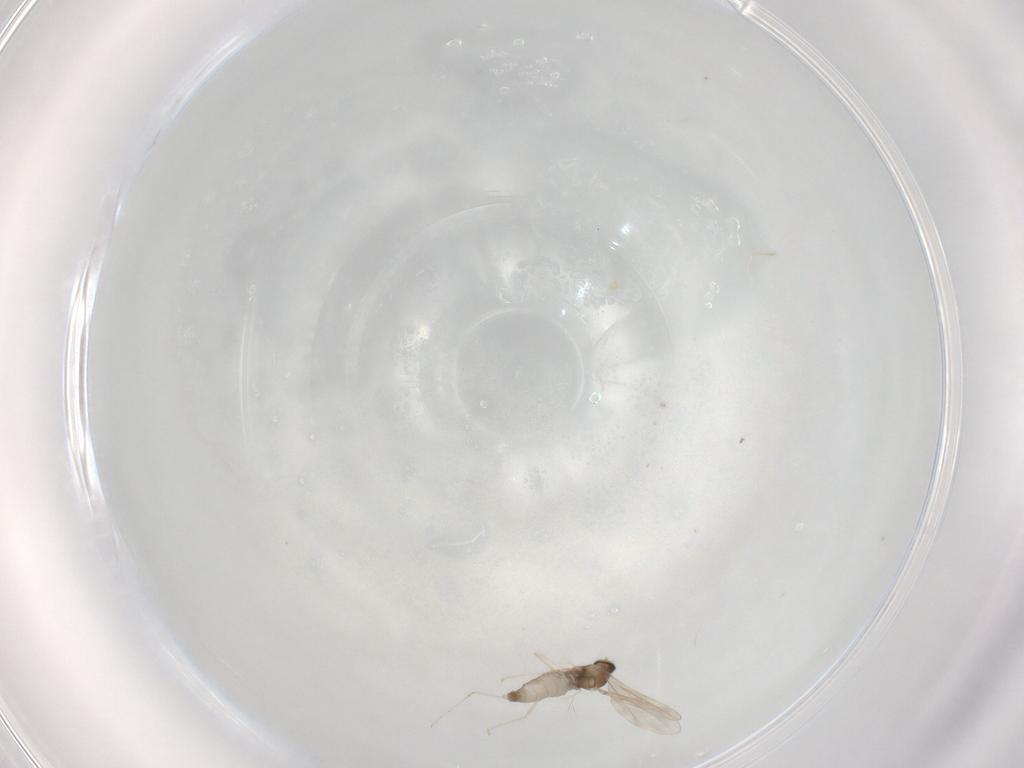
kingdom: Animalia
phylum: Arthropoda
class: Insecta
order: Diptera
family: Cecidomyiidae
